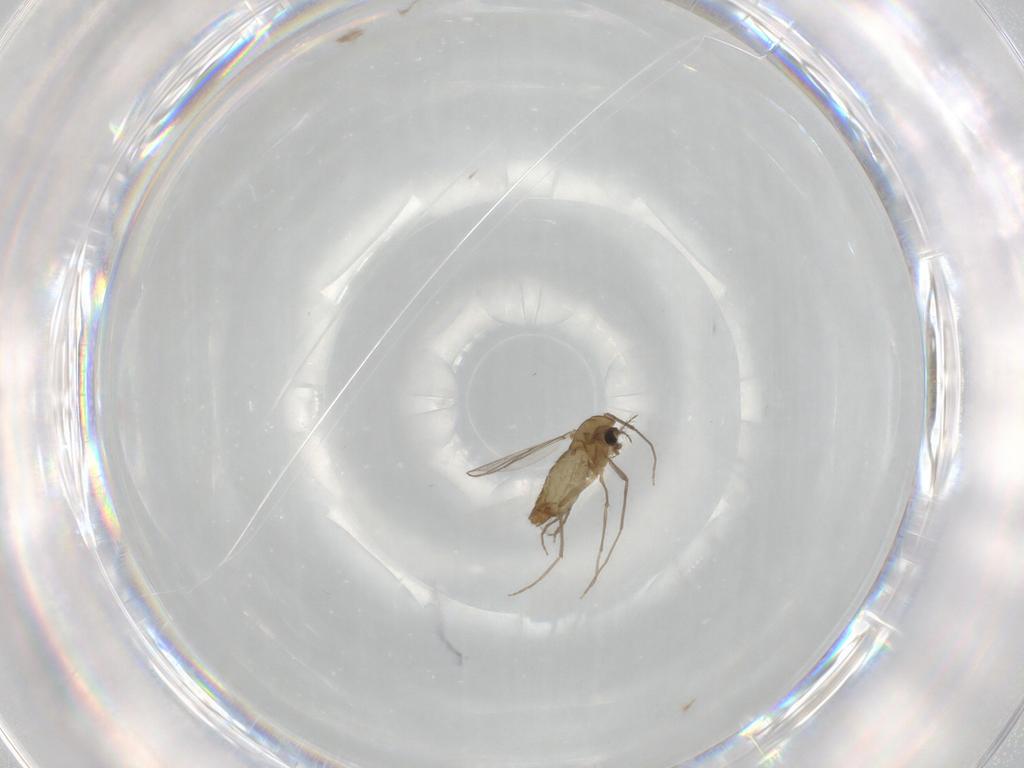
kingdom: Animalia
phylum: Arthropoda
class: Insecta
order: Diptera
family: Chironomidae
